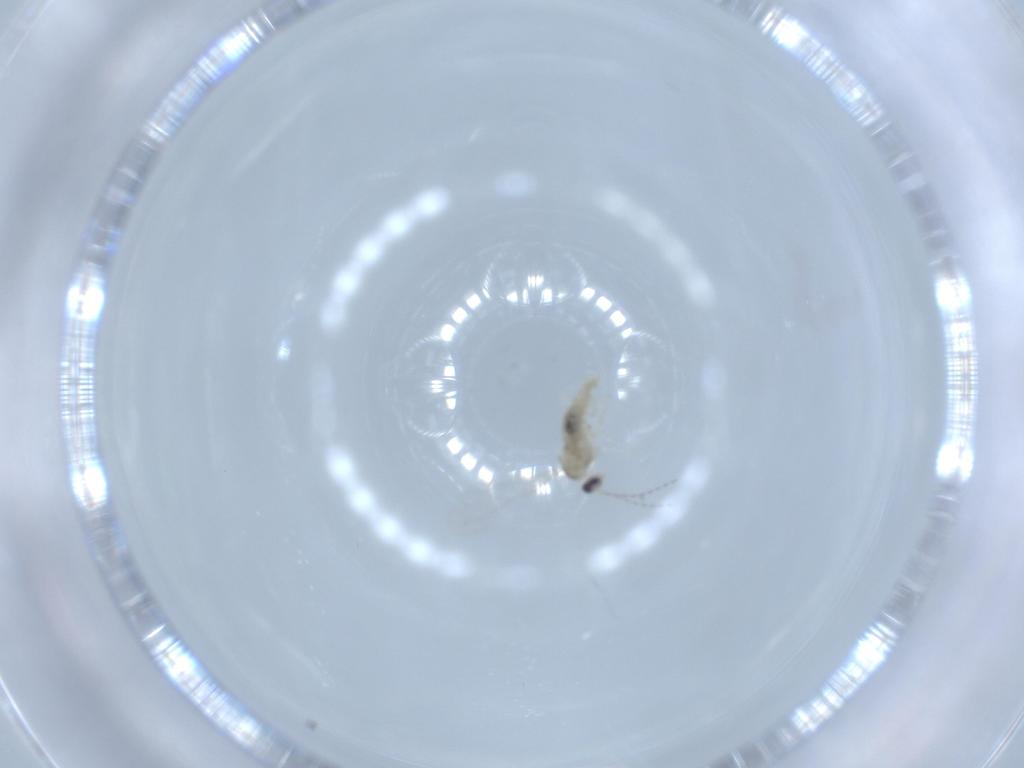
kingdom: Animalia
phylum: Arthropoda
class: Insecta
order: Diptera
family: Cecidomyiidae
